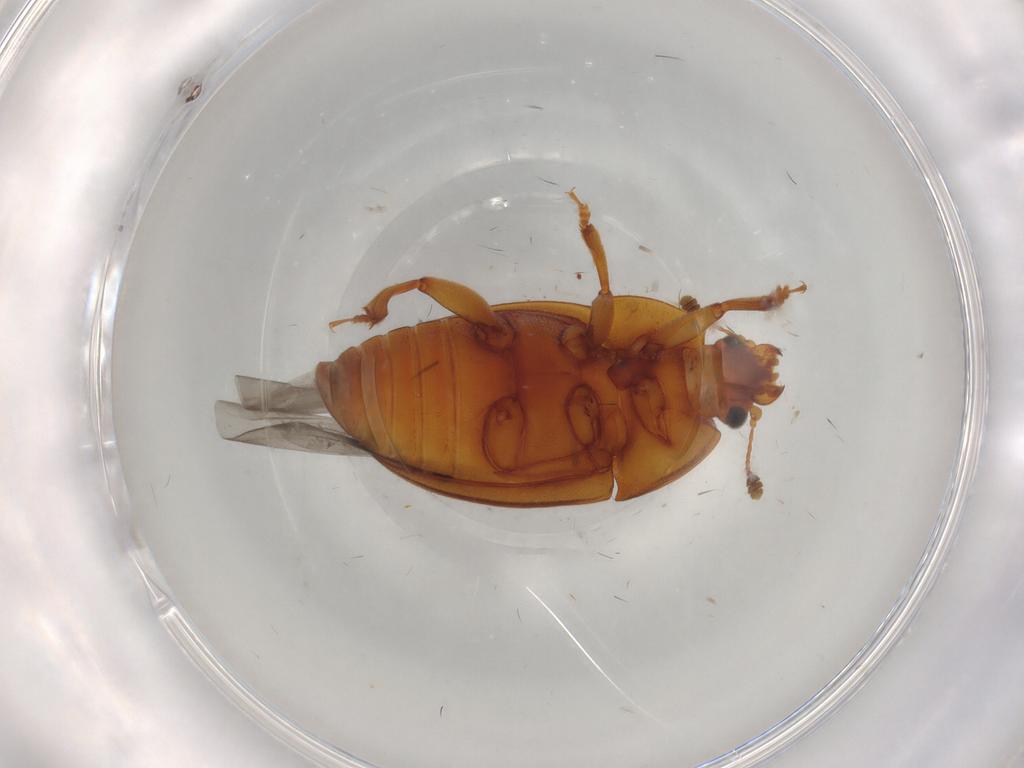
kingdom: Animalia
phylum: Arthropoda
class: Insecta
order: Coleoptera
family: Nitidulidae
